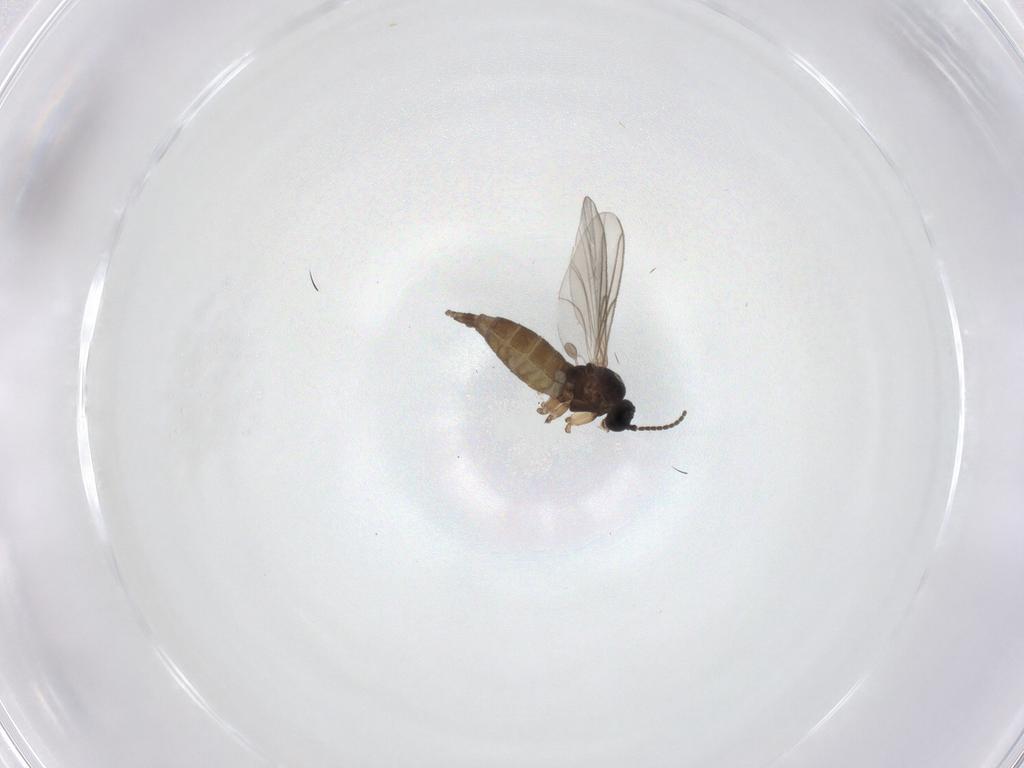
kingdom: Animalia
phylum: Arthropoda
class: Insecta
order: Diptera
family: Sciaridae
